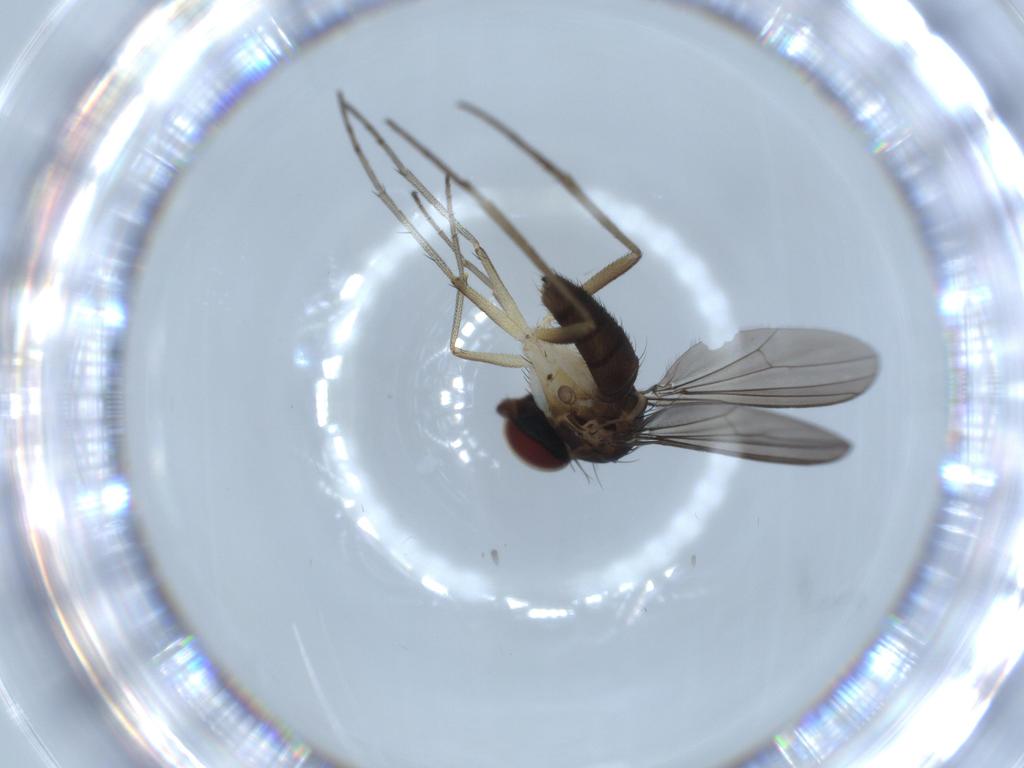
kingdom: Animalia
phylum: Arthropoda
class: Insecta
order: Diptera
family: Dolichopodidae
